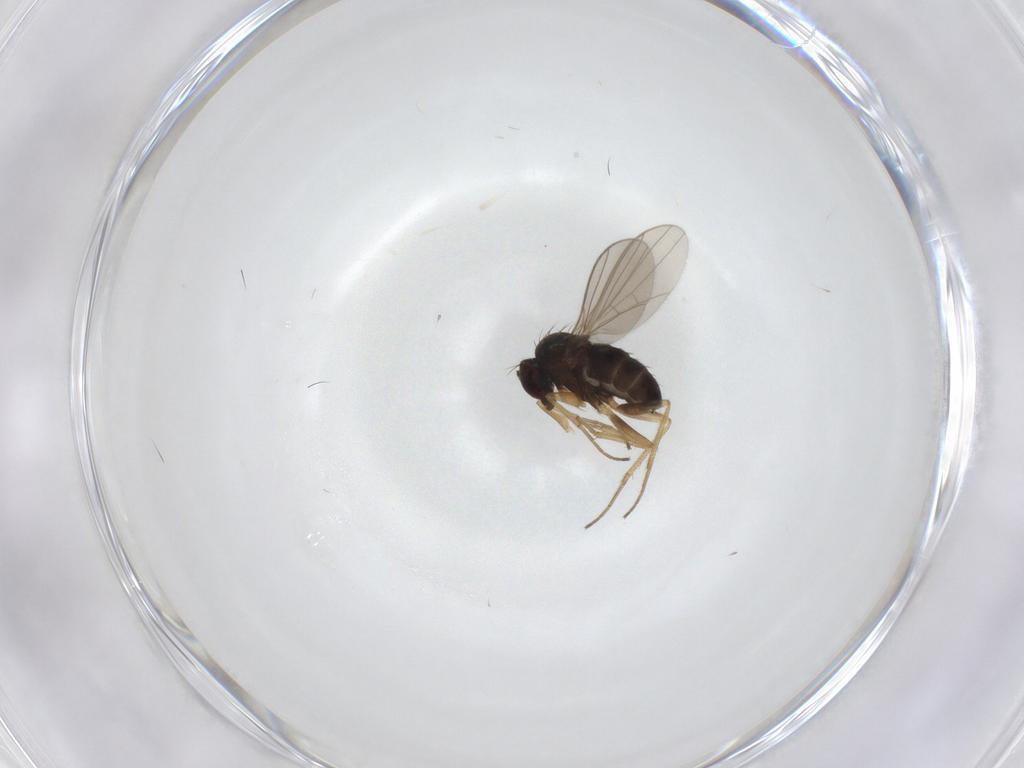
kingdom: Animalia
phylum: Arthropoda
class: Insecta
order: Diptera
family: Dolichopodidae
